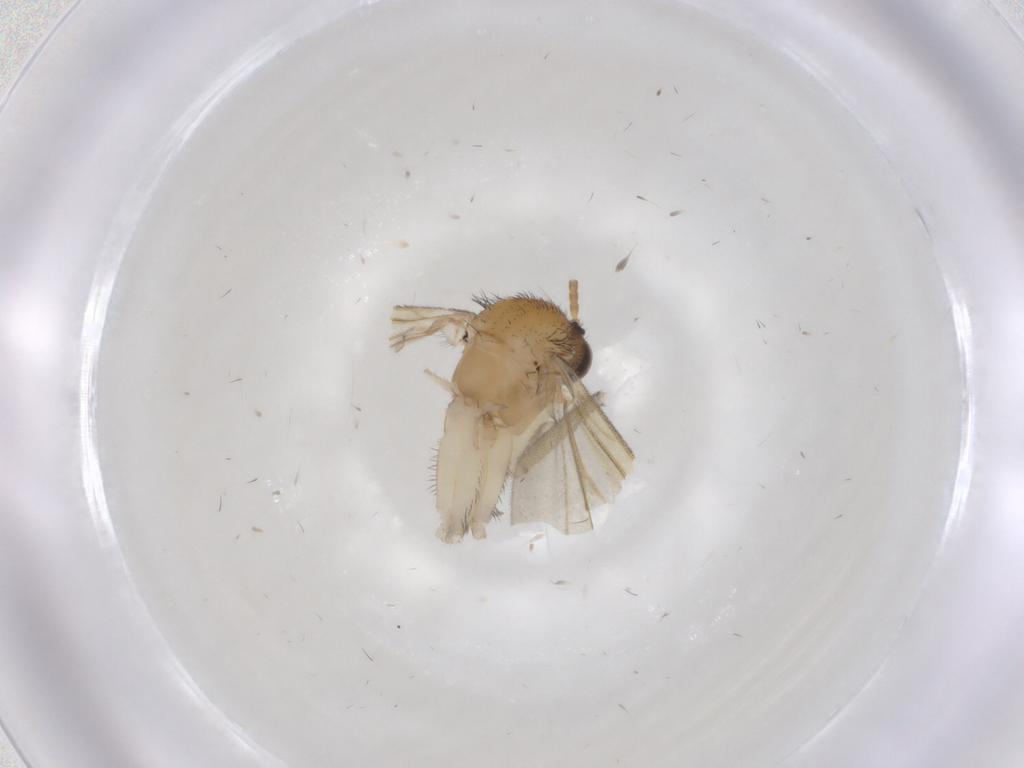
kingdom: Animalia
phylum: Arthropoda
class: Insecta
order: Diptera
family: Keroplatidae
